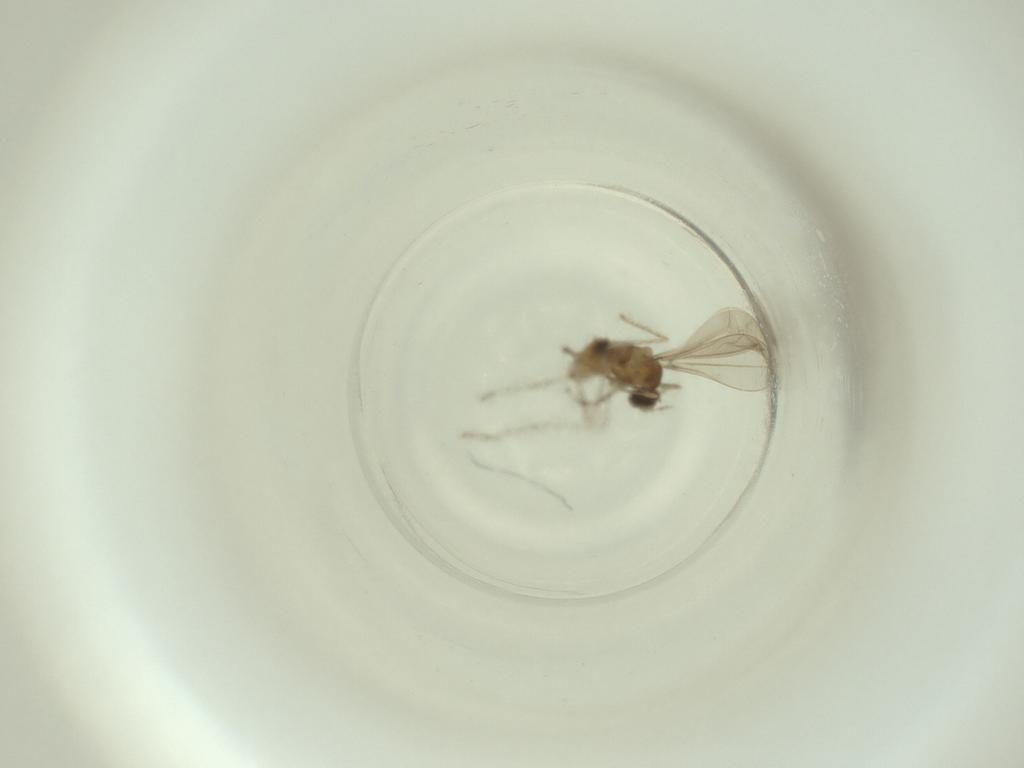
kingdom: Animalia
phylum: Arthropoda
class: Insecta
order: Diptera
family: Cecidomyiidae
